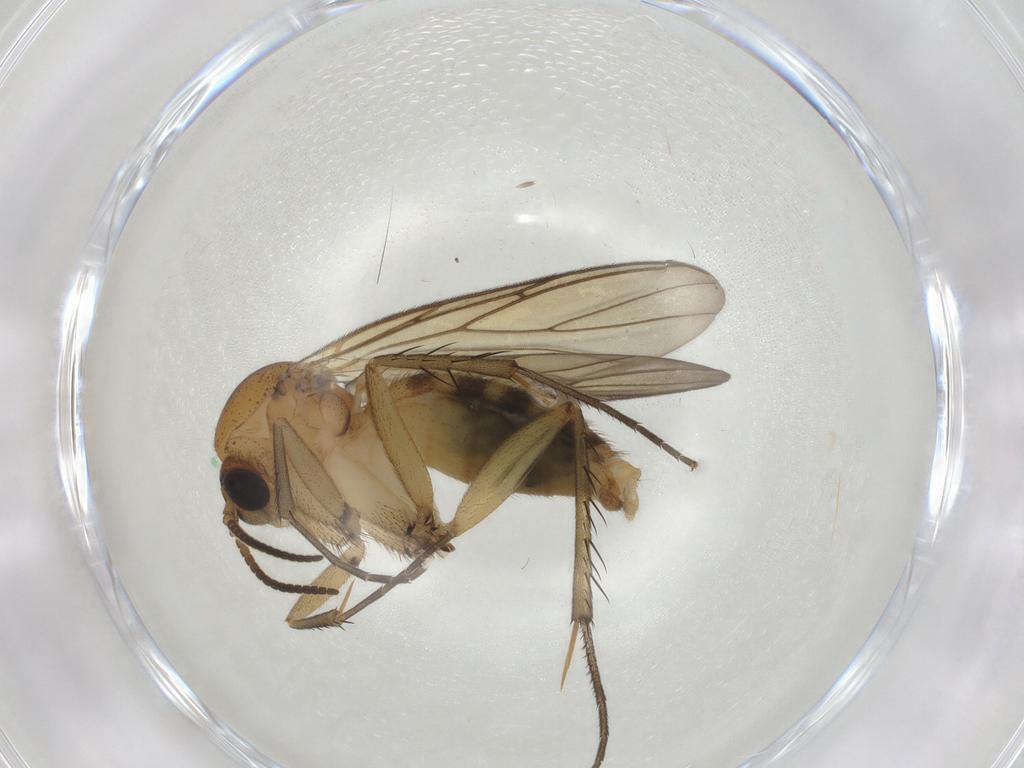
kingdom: Animalia
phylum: Arthropoda
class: Insecta
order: Diptera
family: Mycetophilidae
